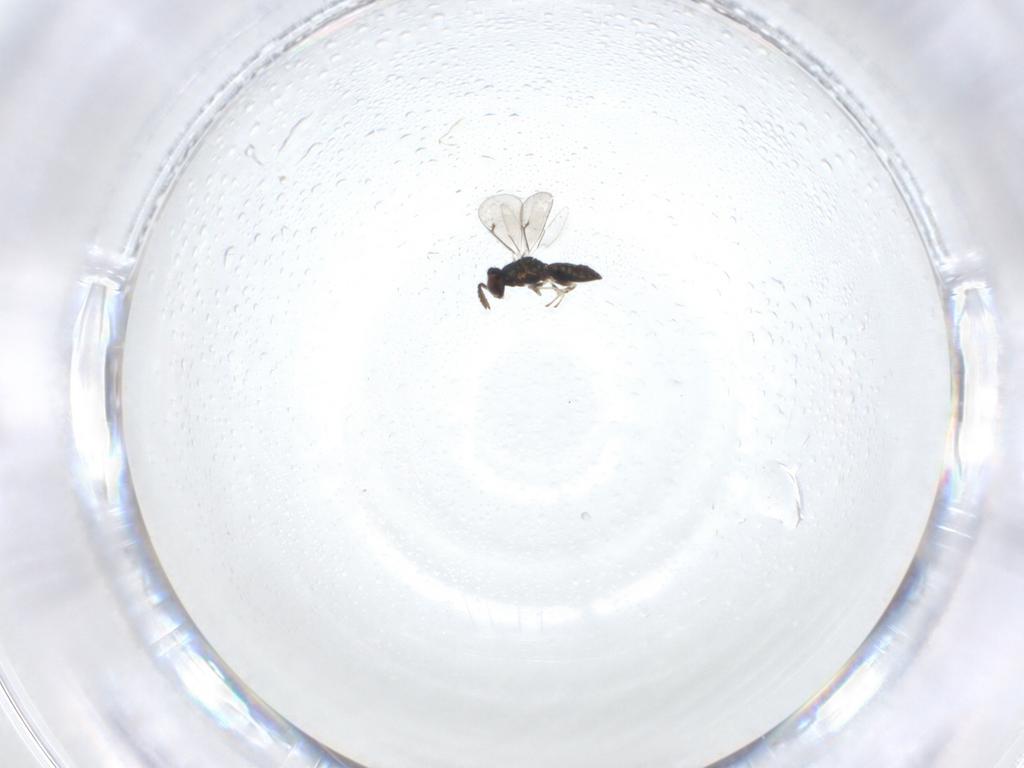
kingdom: Animalia
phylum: Arthropoda
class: Insecta
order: Hymenoptera
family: Eulophidae
